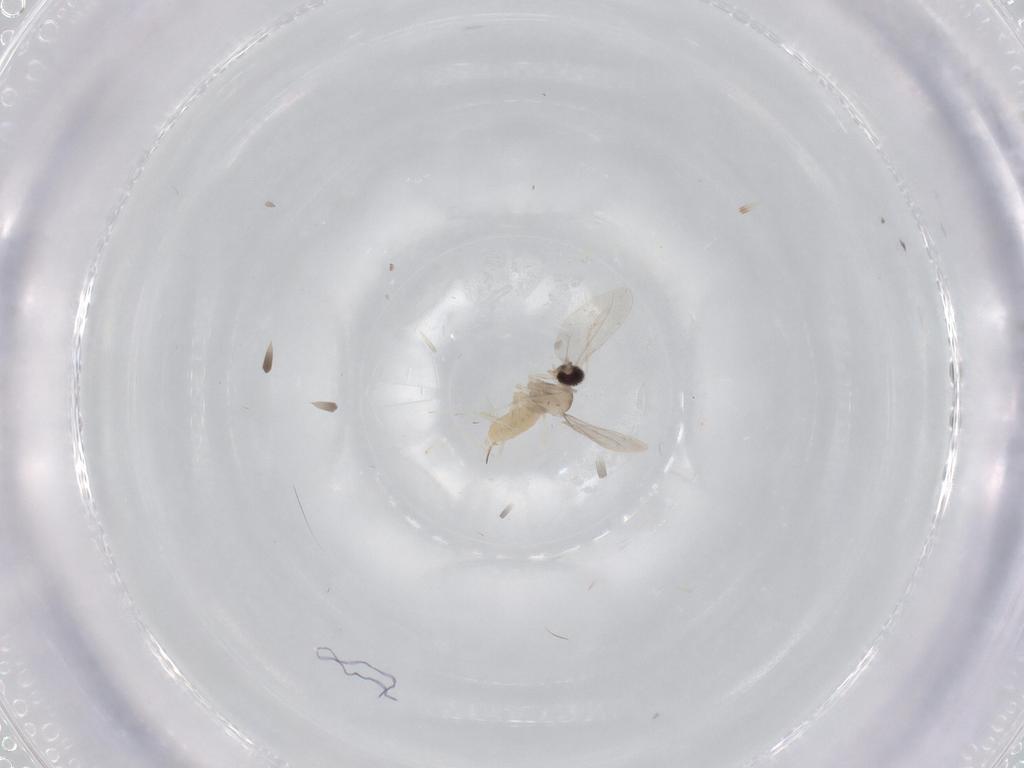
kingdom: Animalia
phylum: Arthropoda
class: Insecta
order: Diptera
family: Cecidomyiidae
